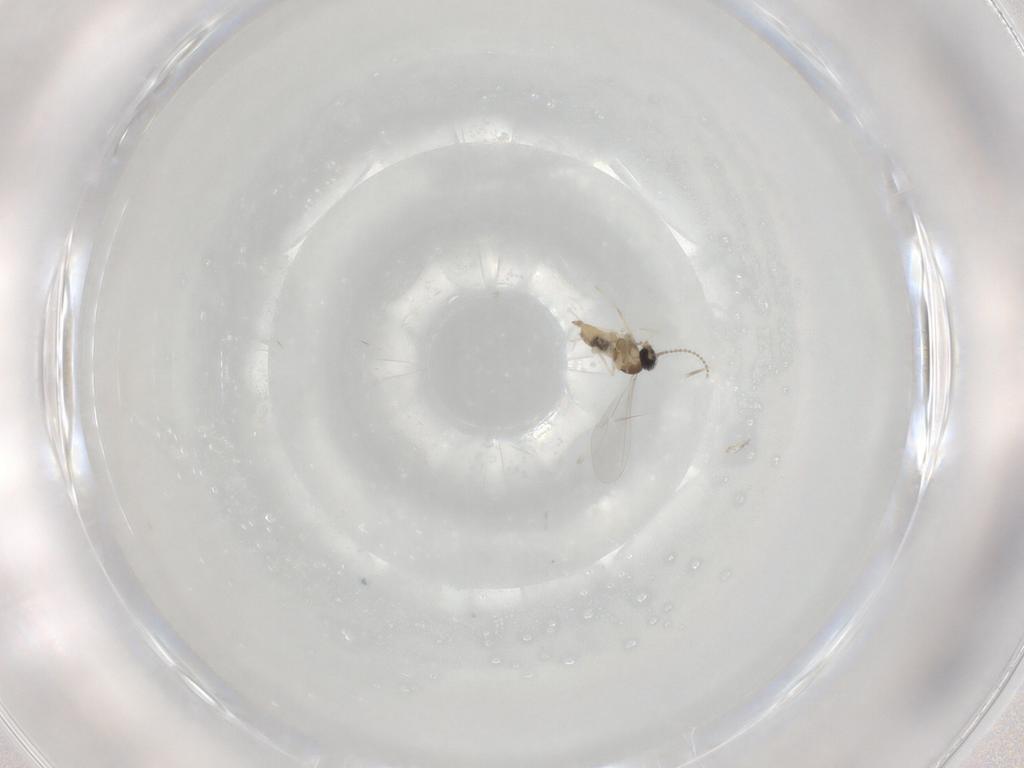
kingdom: Animalia
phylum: Arthropoda
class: Insecta
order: Diptera
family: Cecidomyiidae
